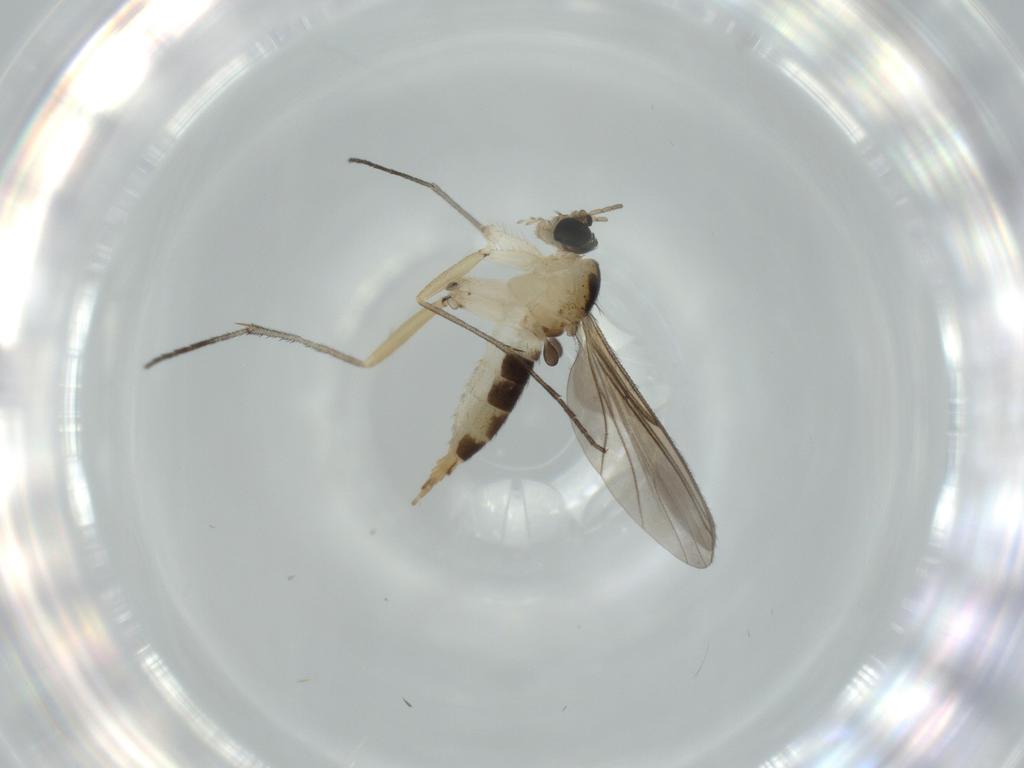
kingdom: Animalia
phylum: Arthropoda
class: Insecta
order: Diptera
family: Sciaridae
